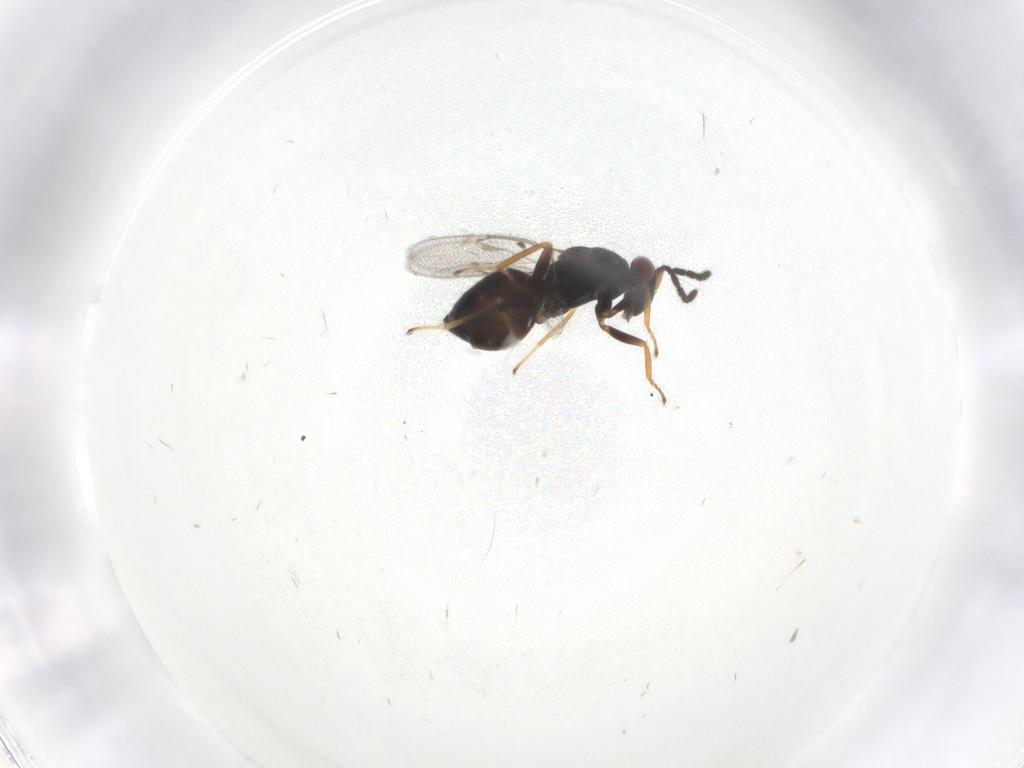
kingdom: Animalia
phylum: Arthropoda
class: Insecta
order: Hymenoptera
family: Eulophidae
